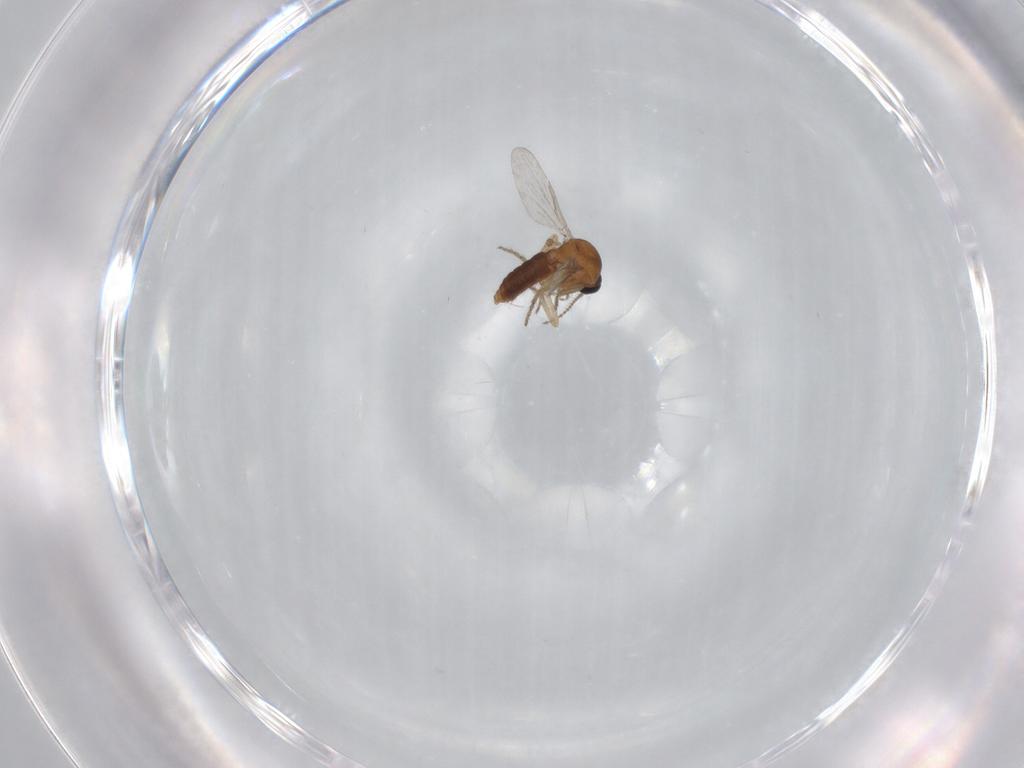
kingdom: Animalia
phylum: Arthropoda
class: Insecta
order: Diptera
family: Ceratopogonidae
